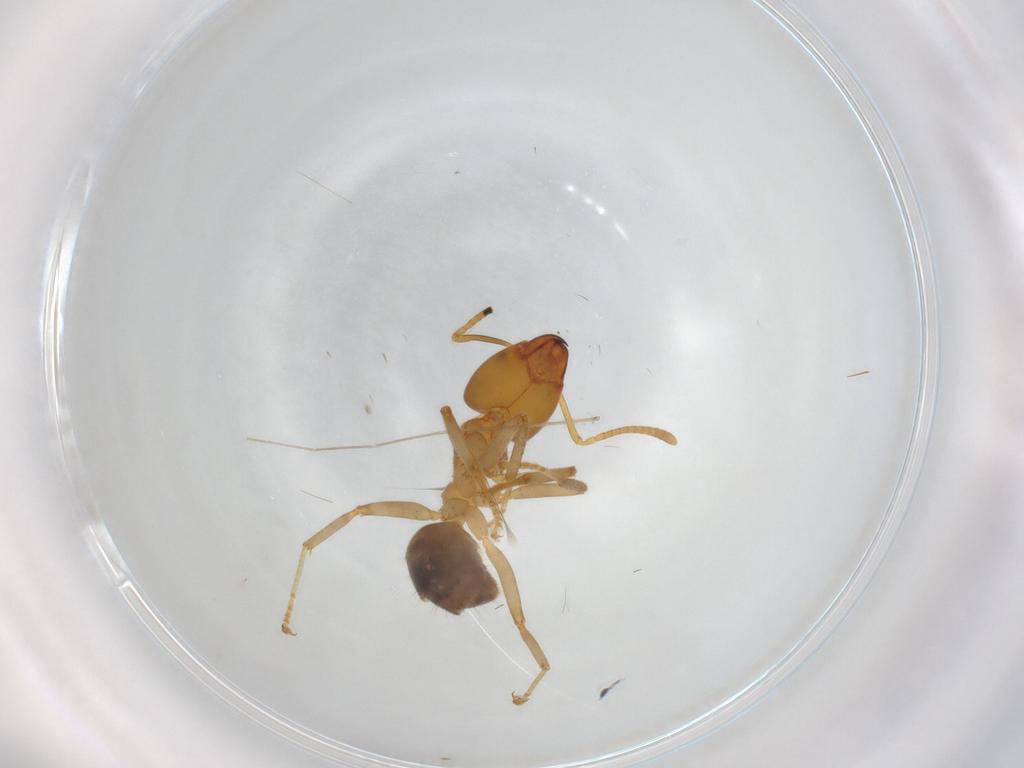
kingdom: Animalia
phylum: Arthropoda
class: Insecta
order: Hymenoptera
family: Formicidae
